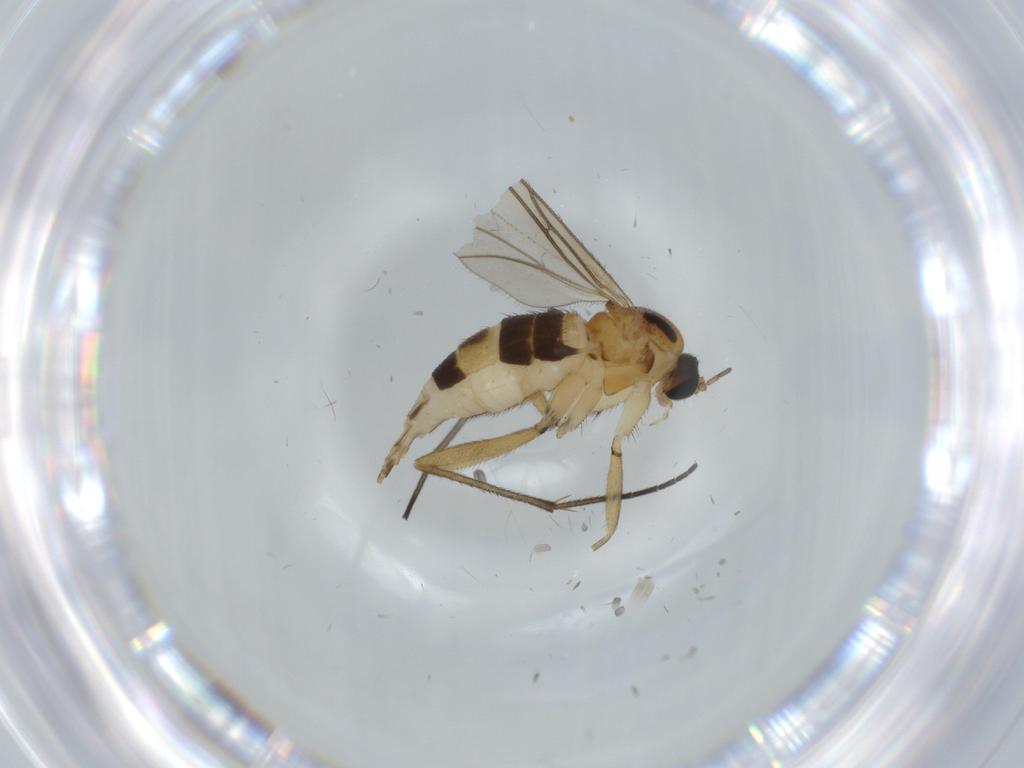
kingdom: Animalia
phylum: Arthropoda
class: Insecta
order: Diptera
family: Sciaridae
